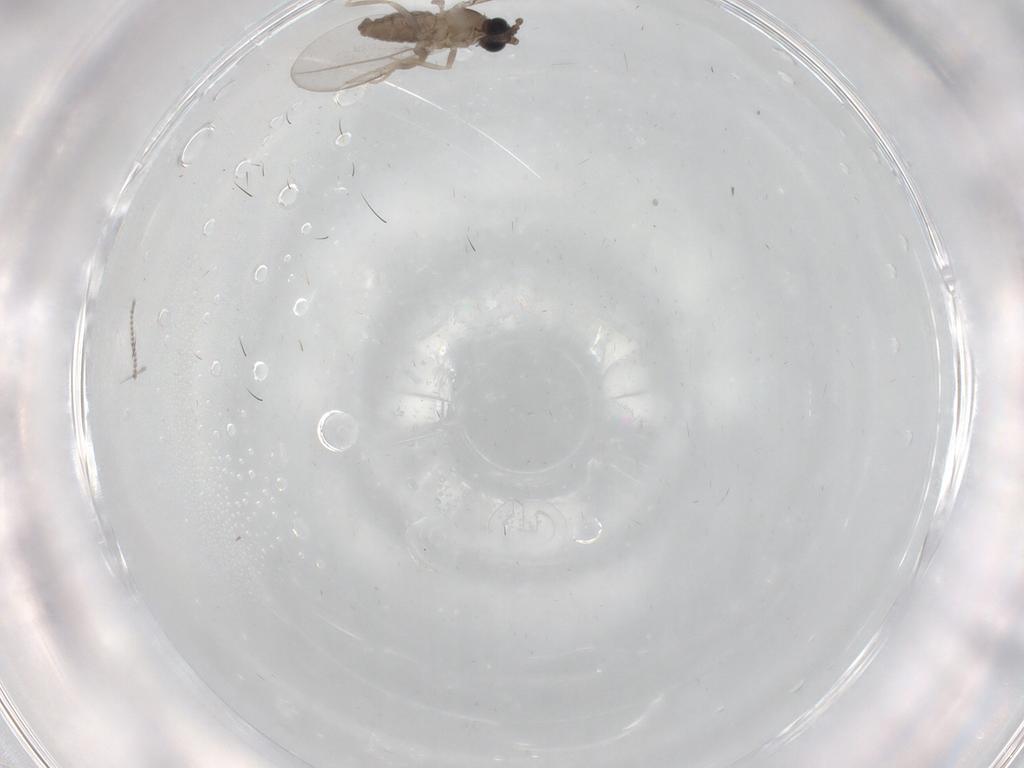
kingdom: Animalia
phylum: Arthropoda
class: Insecta
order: Diptera
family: Cecidomyiidae
